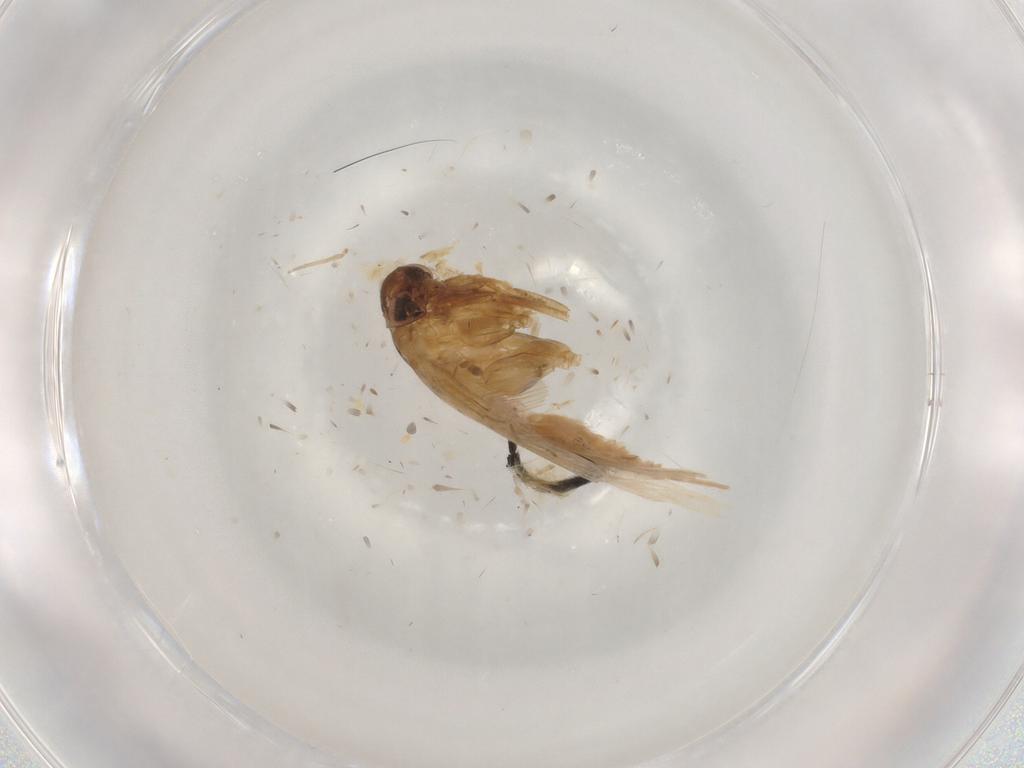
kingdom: Animalia
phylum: Arthropoda
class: Insecta
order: Lepidoptera
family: Gelechiidae
